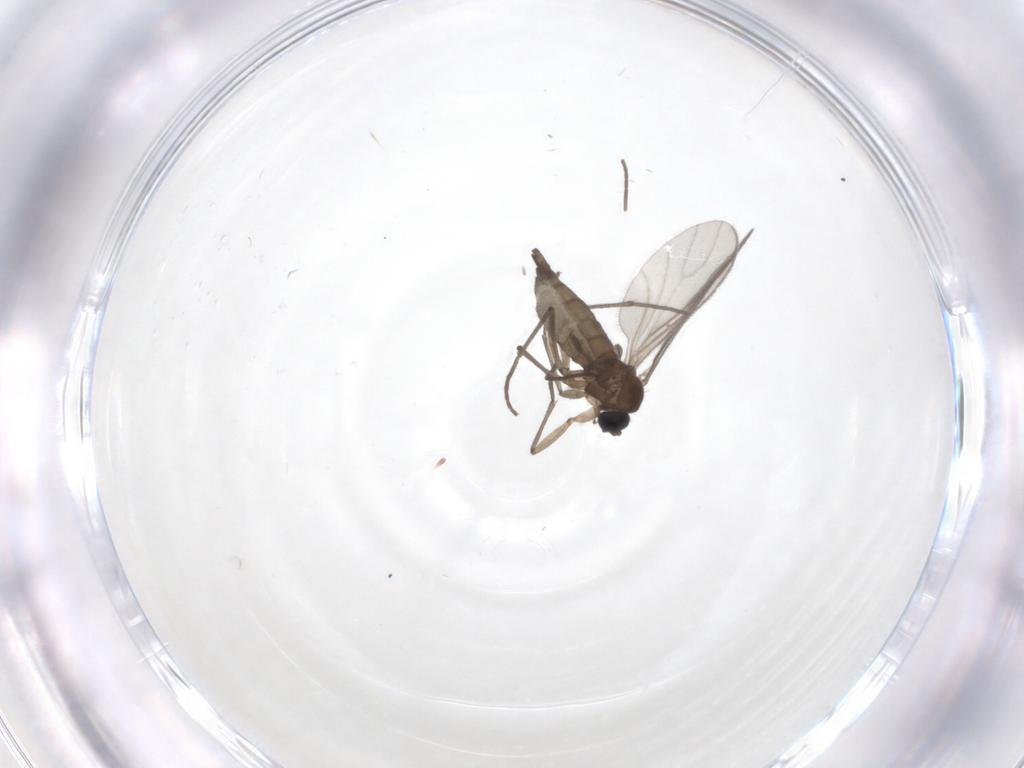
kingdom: Animalia
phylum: Arthropoda
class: Insecta
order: Diptera
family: Sciaridae
